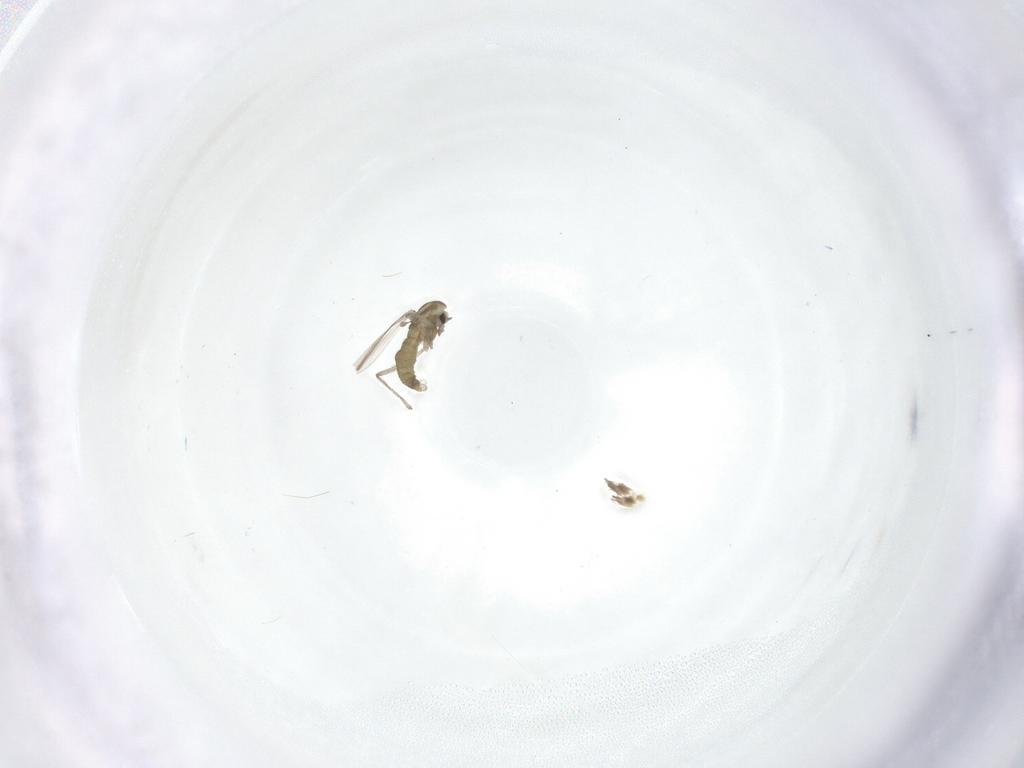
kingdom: Animalia
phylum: Arthropoda
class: Insecta
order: Diptera
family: Chironomidae
